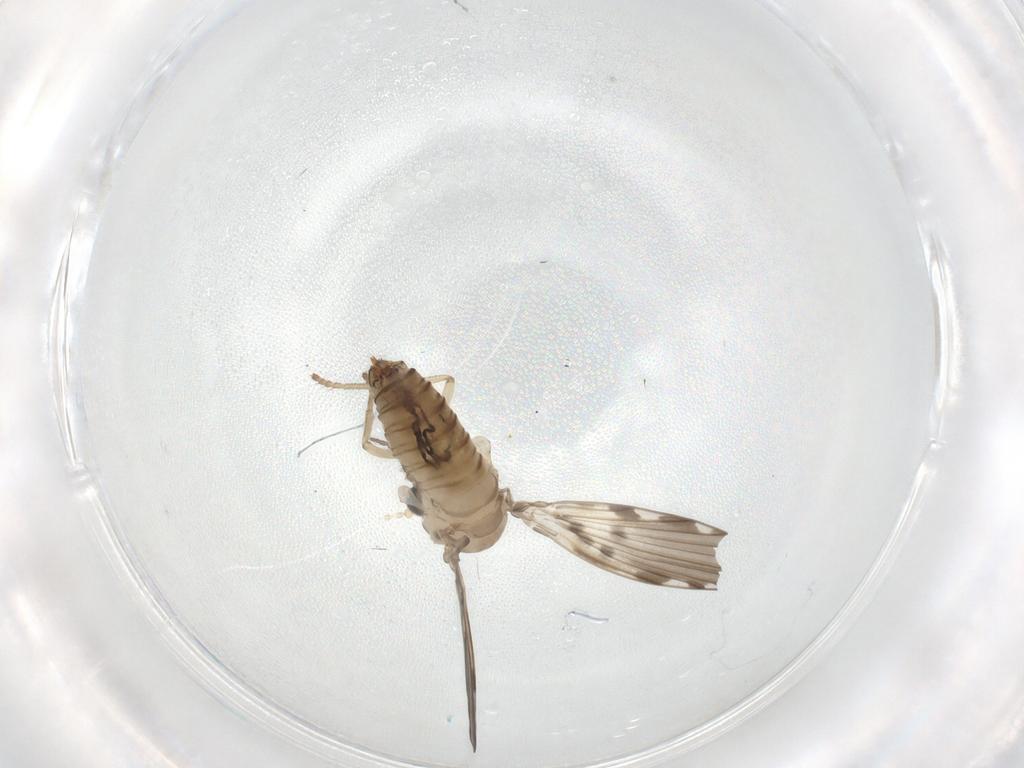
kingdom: Animalia
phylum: Arthropoda
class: Insecta
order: Diptera
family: Psychodidae
